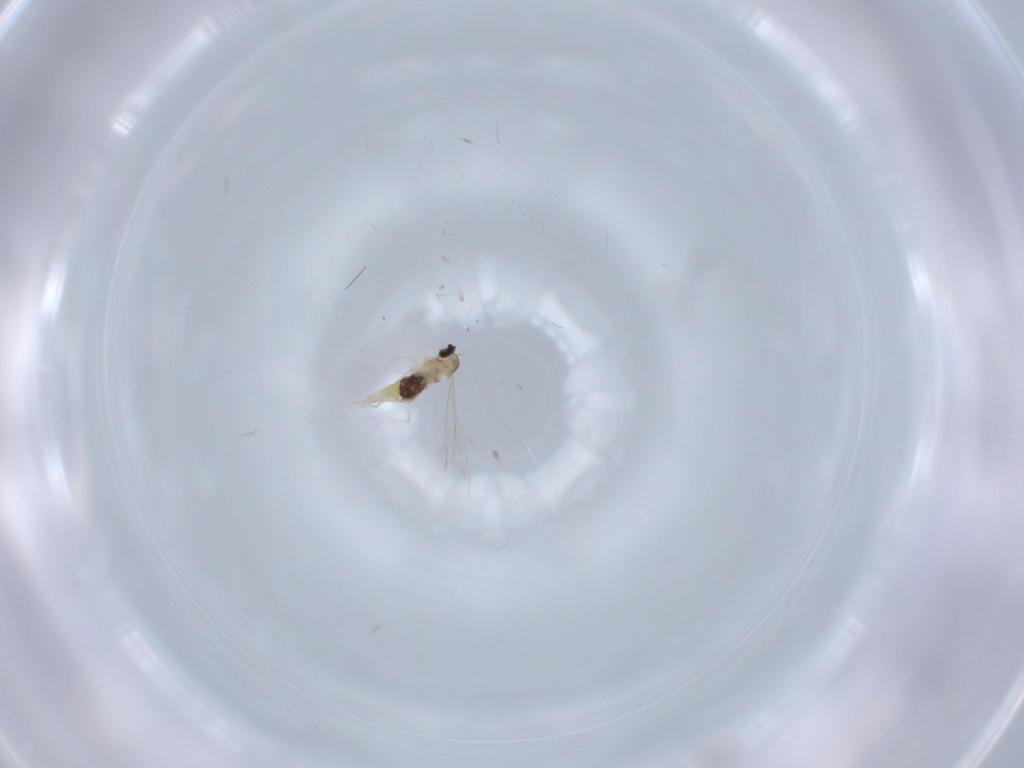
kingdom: Animalia
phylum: Arthropoda
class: Insecta
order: Diptera
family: Cecidomyiidae
